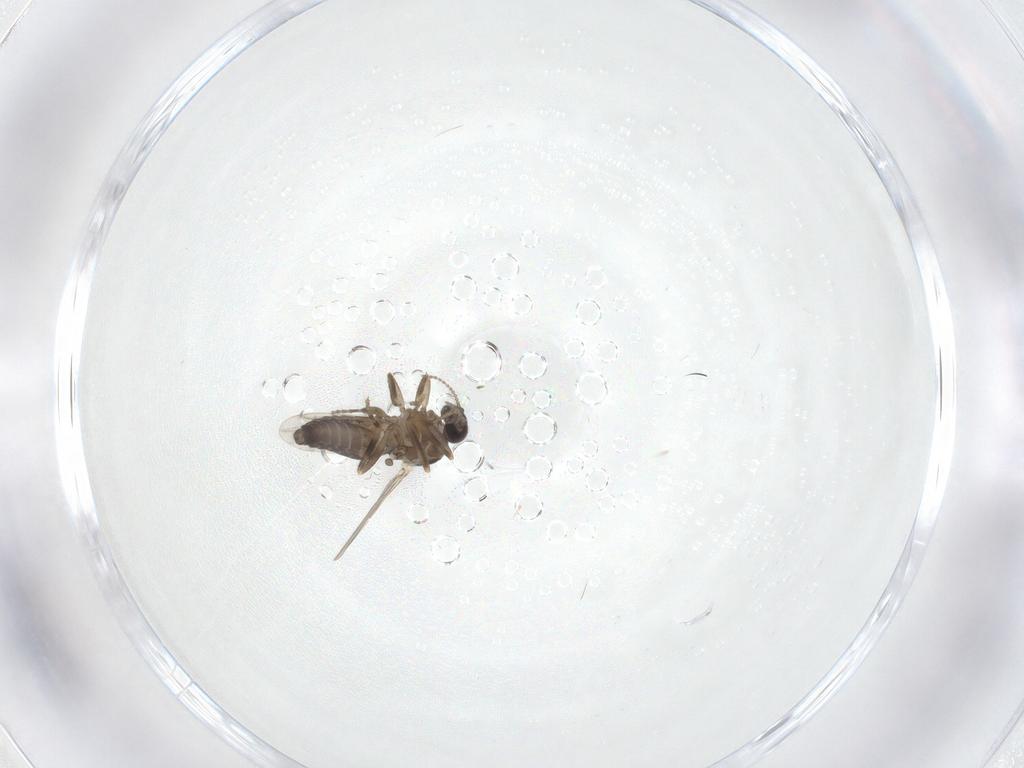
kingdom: Animalia
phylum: Arthropoda
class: Insecta
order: Diptera
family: Ceratopogonidae
